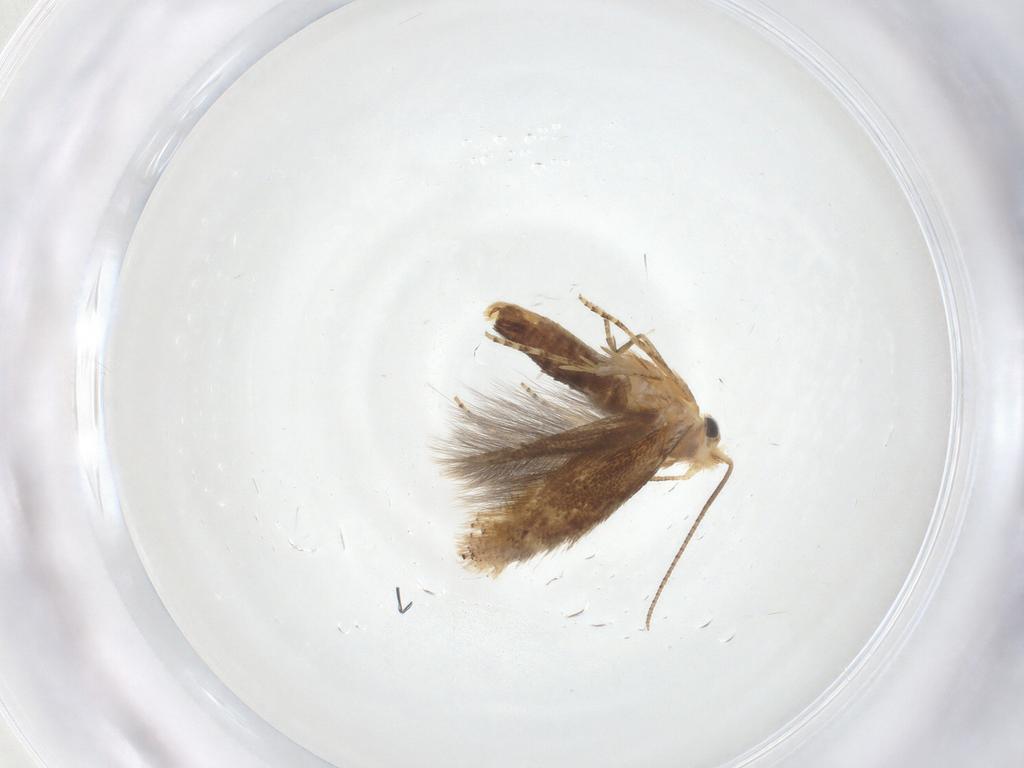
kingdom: Animalia
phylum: Arthropoda
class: Insecta
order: Lepidoptera
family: Bucculatricidae
